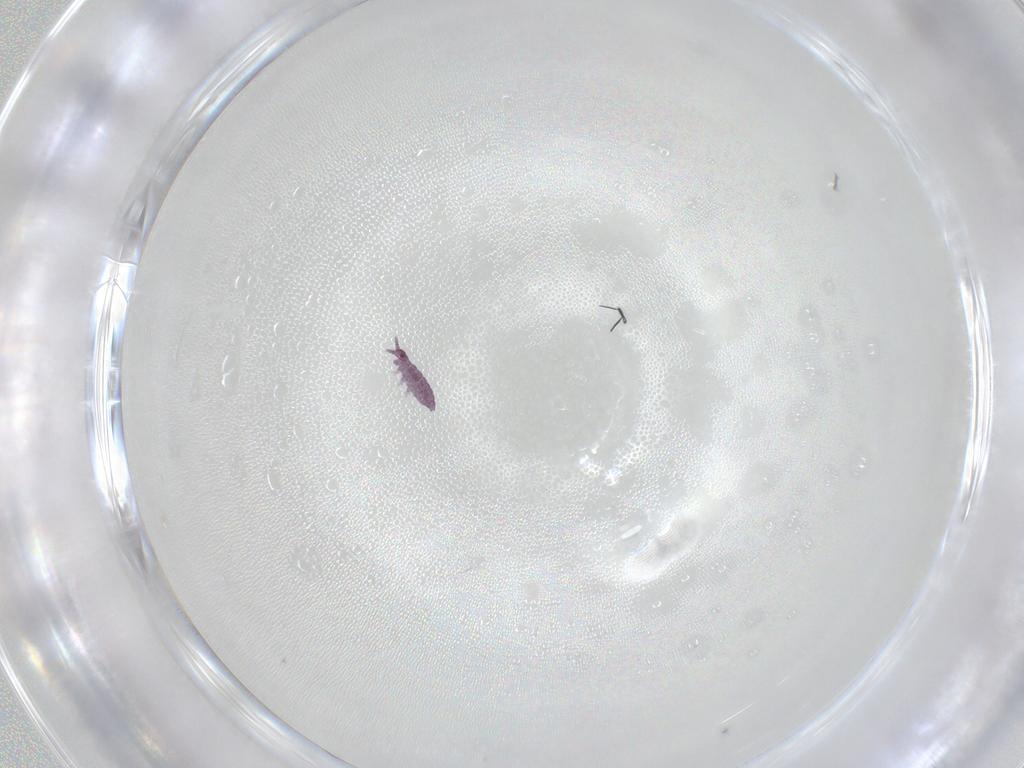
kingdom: Animalia
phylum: Arthropoda
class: Collembola
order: Poduromorpha
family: Brachystomellidae
